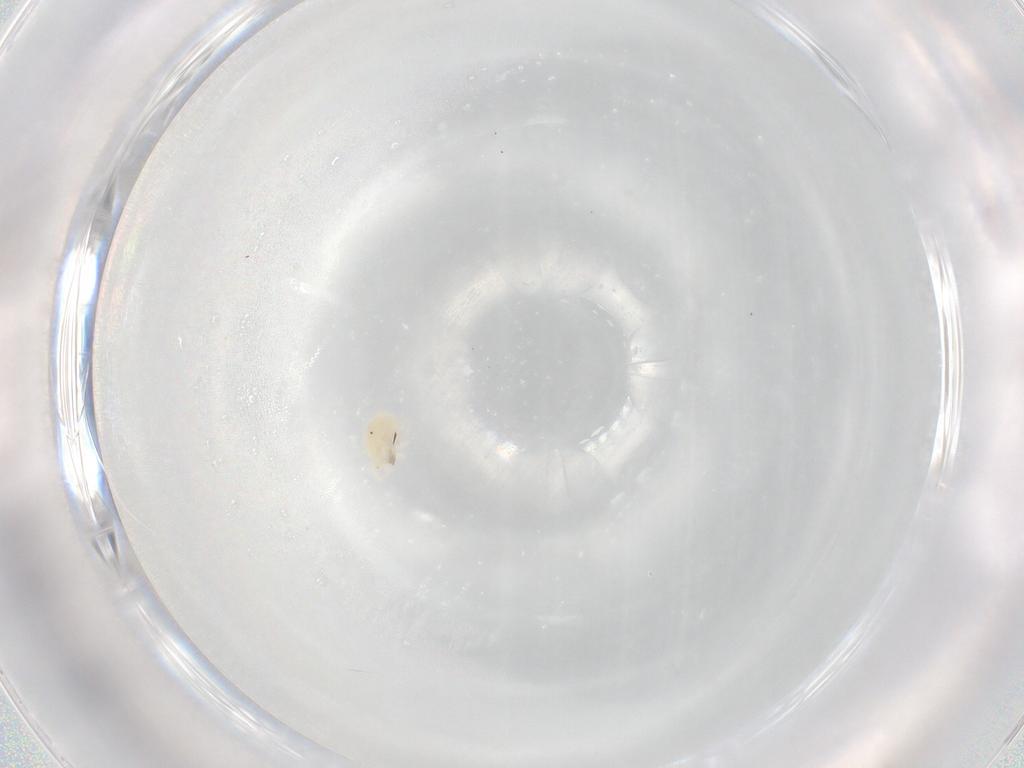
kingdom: Animalia
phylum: Arthropoda
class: Arachnida
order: Trombidiformes
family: Anystidae
